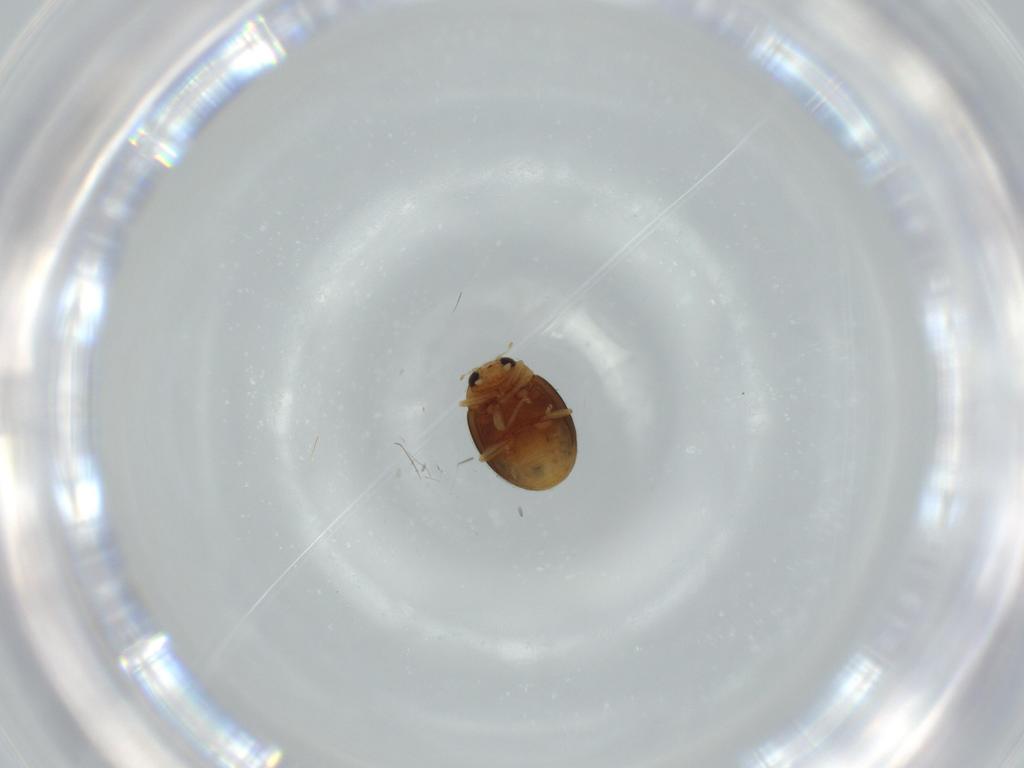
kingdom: Animalia
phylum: Arthropoda
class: Insecta
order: Coleoptera
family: Coccinellidae
